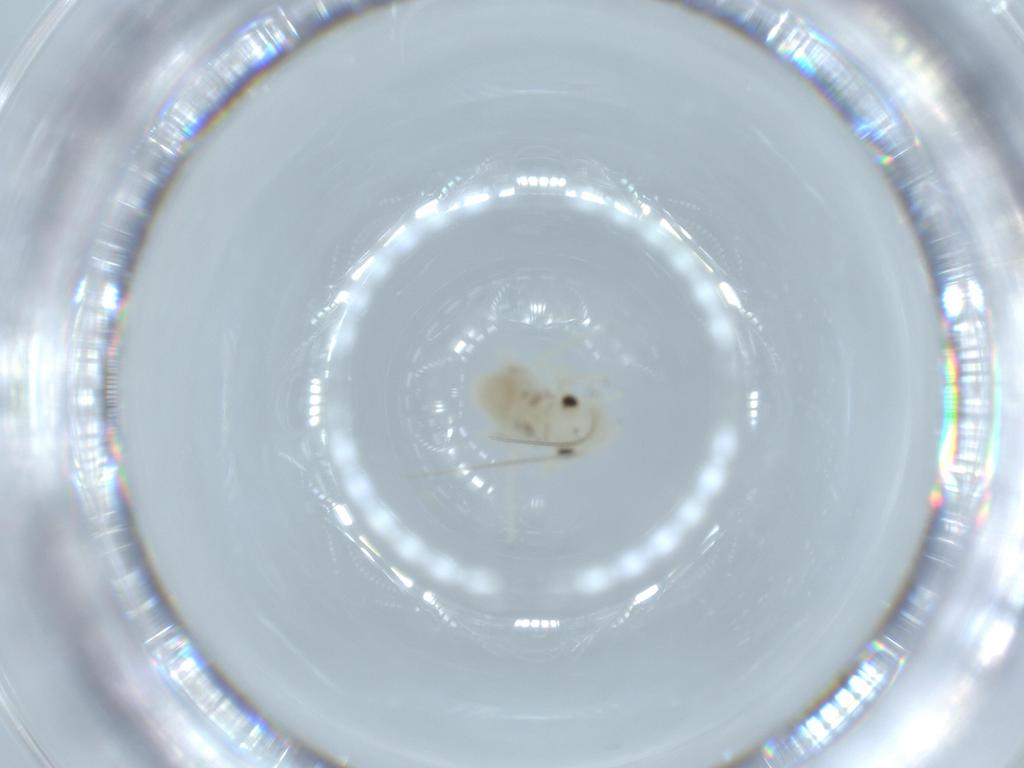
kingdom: Animalia
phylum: Arthropoda
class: Insecta
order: Psocodea
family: Caeciliusidae
